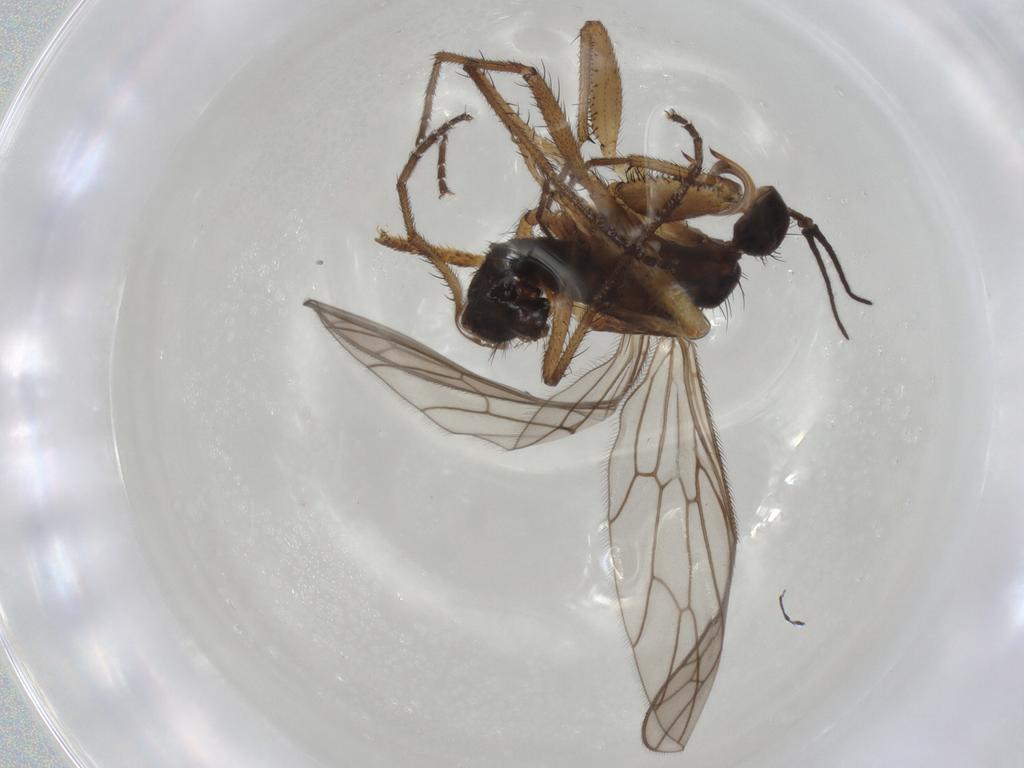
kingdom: Animalia
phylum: Arthropoda
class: Insecta
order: Diptera
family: Empididae
